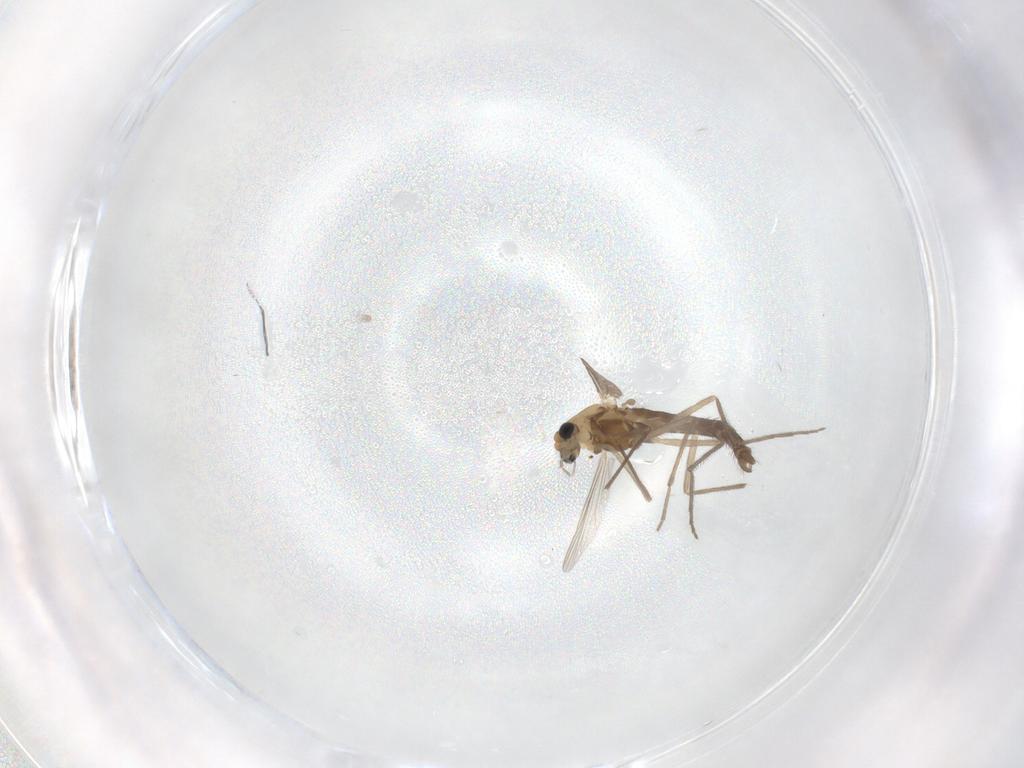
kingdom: Animalia
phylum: Arthropoda
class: Insecta
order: Diptera
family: Chironomidae
